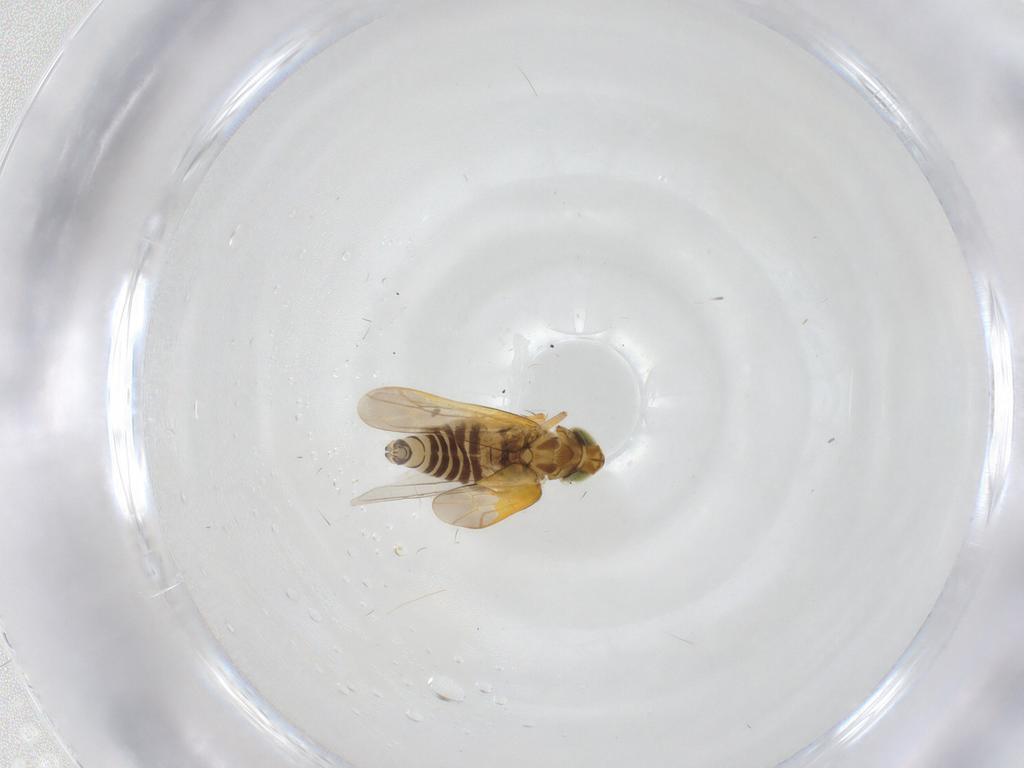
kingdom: Animalia
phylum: Arthropoda
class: Insecta
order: Hemiptera
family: Cicadellidae
